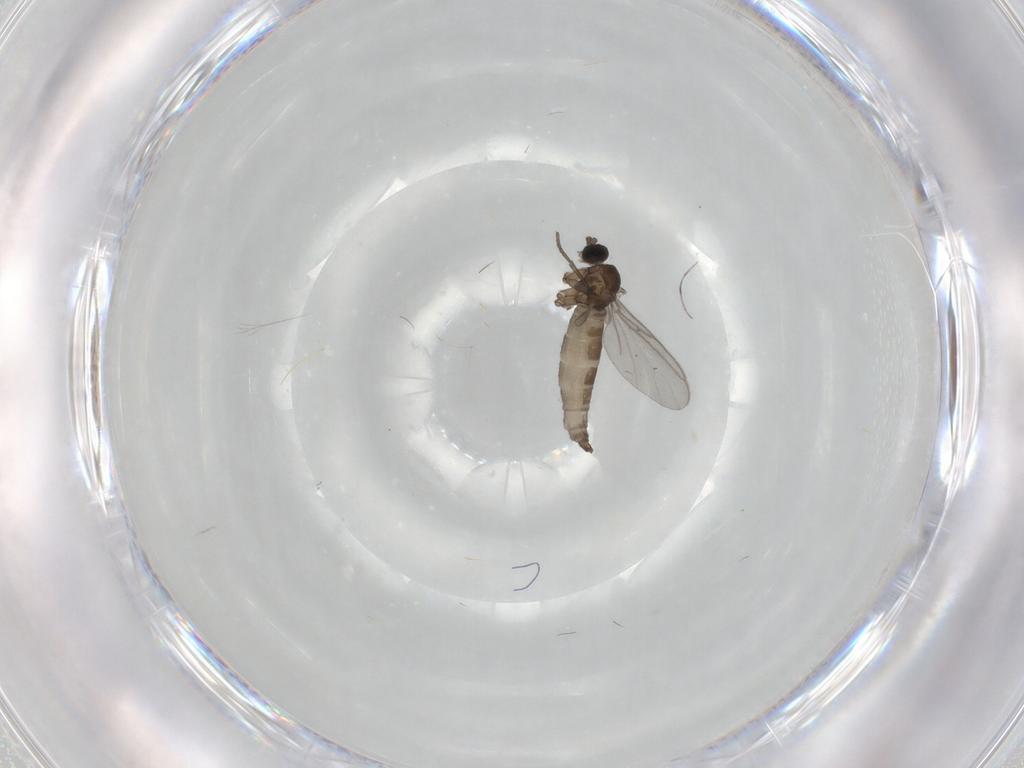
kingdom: Animalia
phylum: Arthropoda
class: Insecta
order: Diptera
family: Sciaridae
